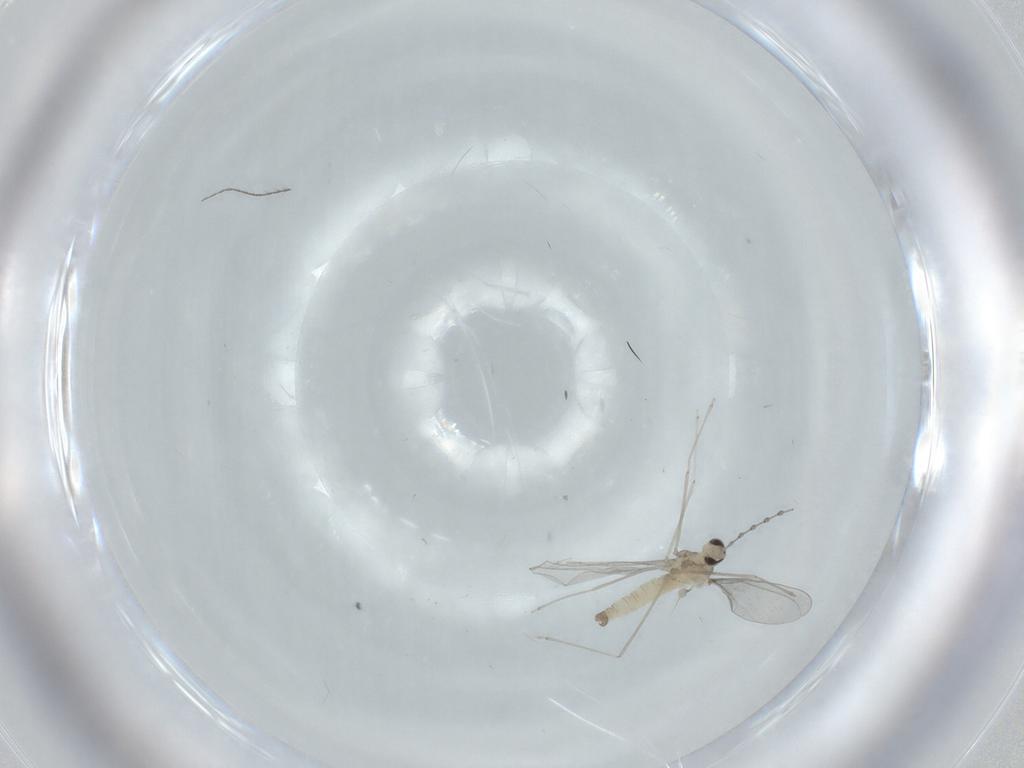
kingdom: Animalia
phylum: Arthropoda
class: Insecta
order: Diptera
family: Cecidomyiidae
